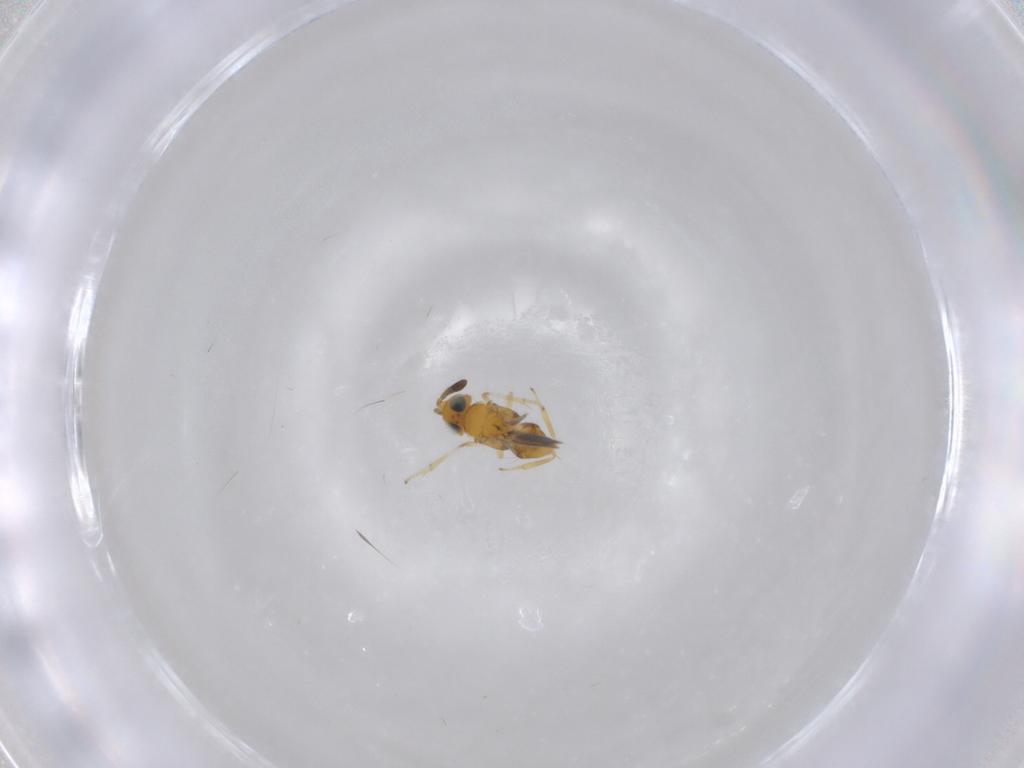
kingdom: Animalia
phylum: Arthropoda
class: Insecta
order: Hymenoptera
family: Encyrtidae
